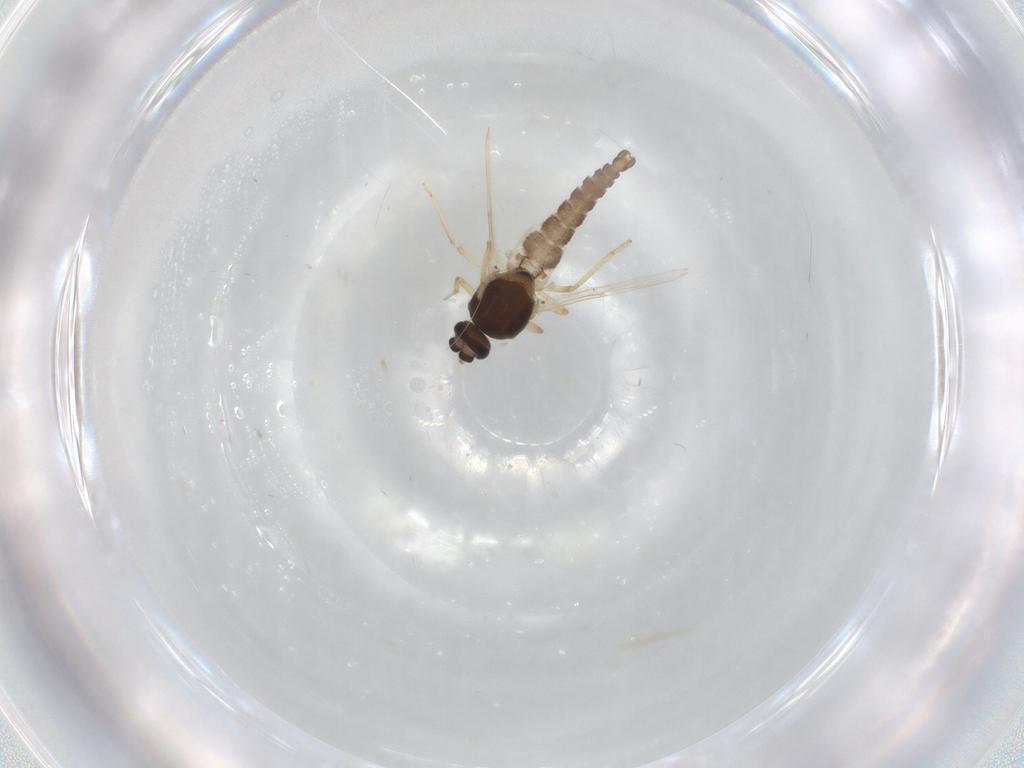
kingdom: Animalia
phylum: Arthropoda
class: Insecta
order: Diptera
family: Ceratopogonidae
